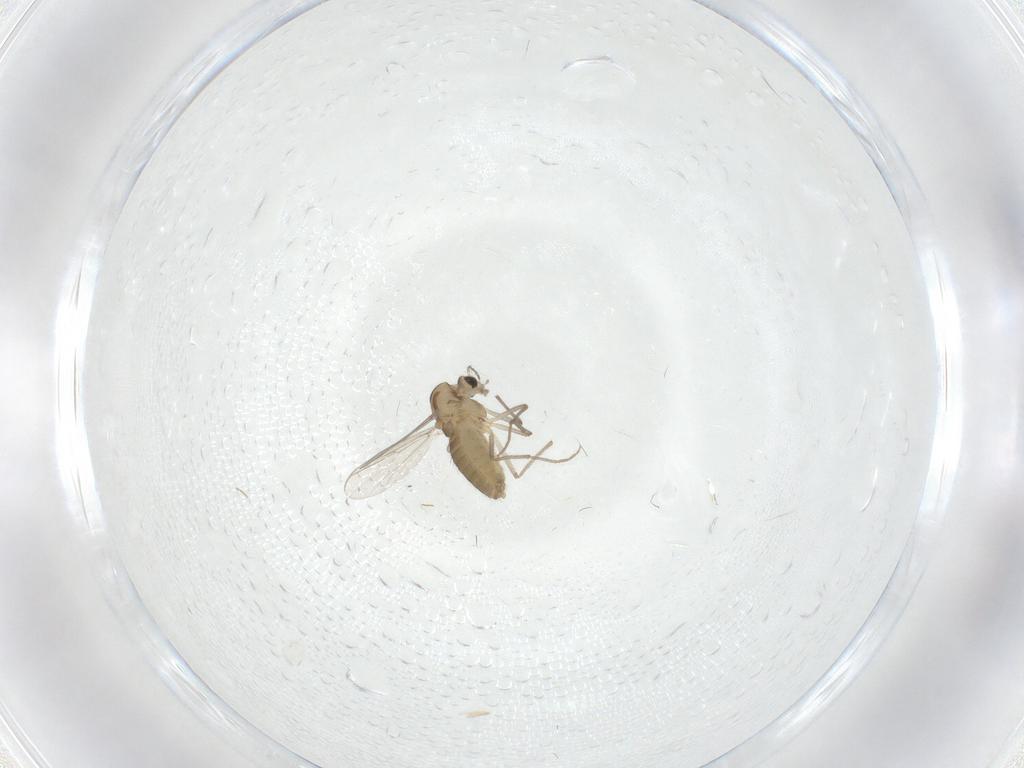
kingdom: Animalia
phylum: Arthropoda
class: Insecta
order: Diptera
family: Chironomidae
